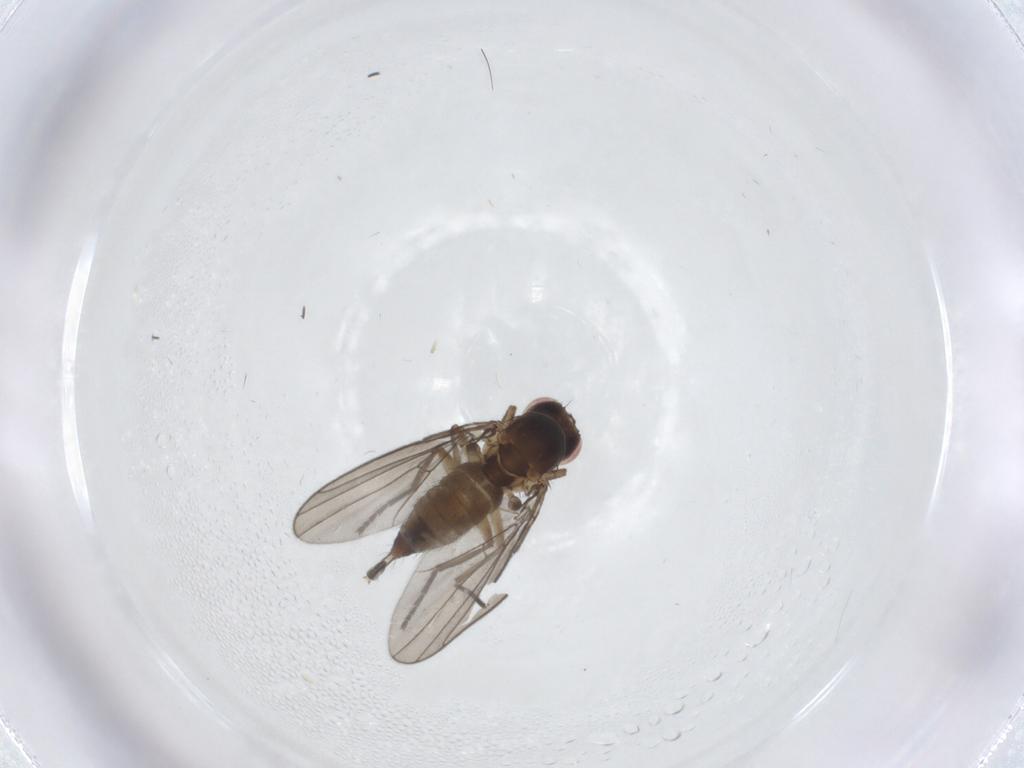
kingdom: Animalia
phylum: Arthropoda
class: Insecta
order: Diptera
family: Agromyzidae
